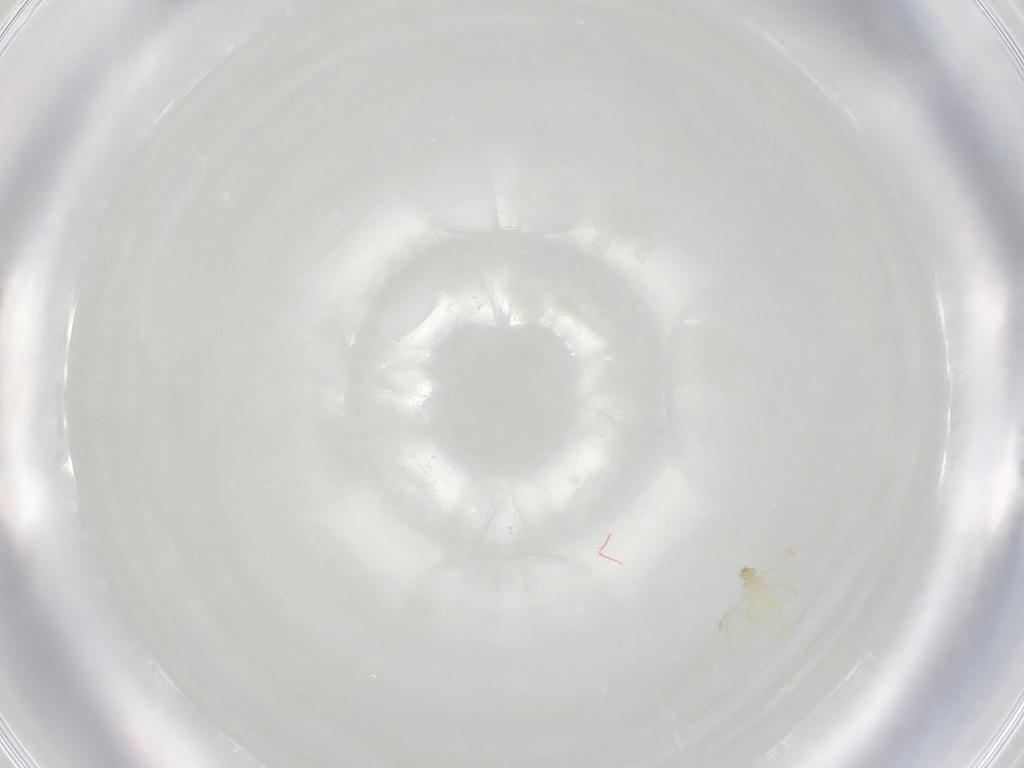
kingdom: Animalia
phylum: Arthropoda
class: Arachnida
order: Trombidiformes
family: Erythraeidae
